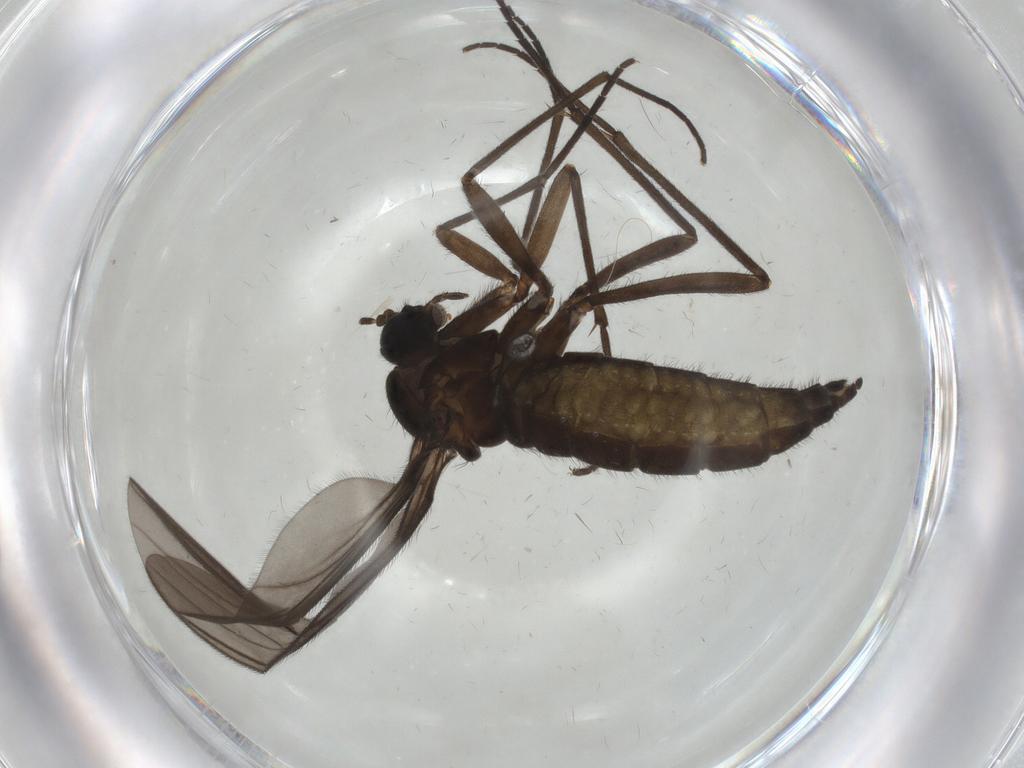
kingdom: Animalia
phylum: Arthropoda
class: Insecta
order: Diptera
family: Sciaridae
